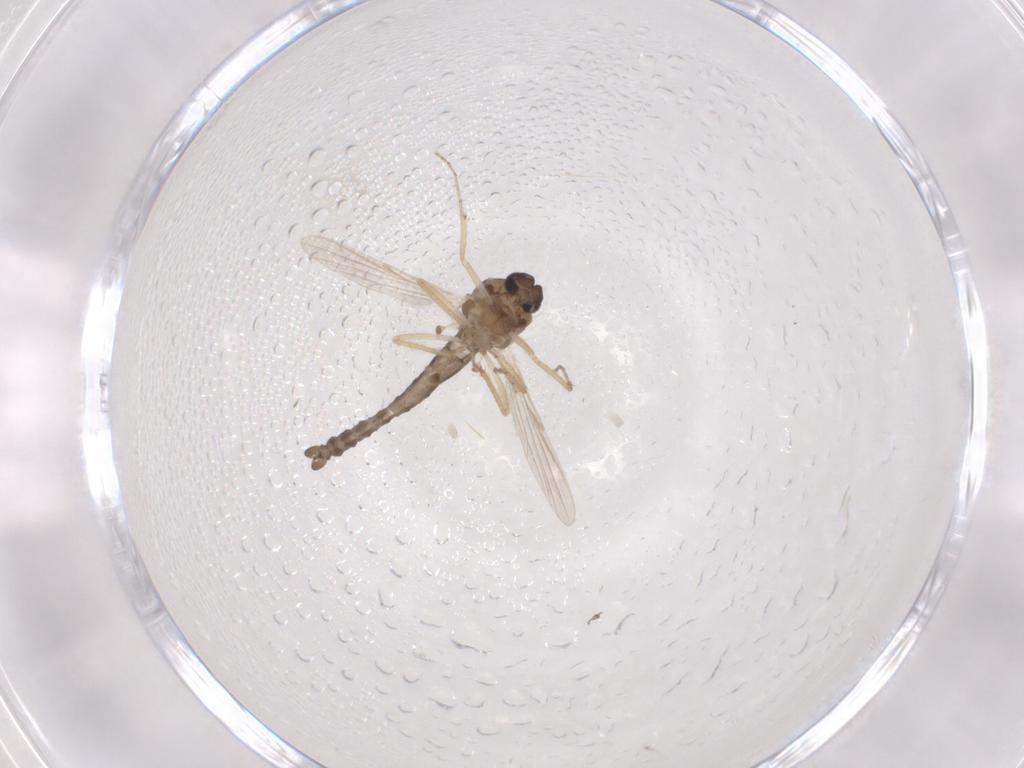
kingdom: Animalia
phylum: Arthropoda
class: Insecta
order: Diptera
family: Ceratopogonidae
